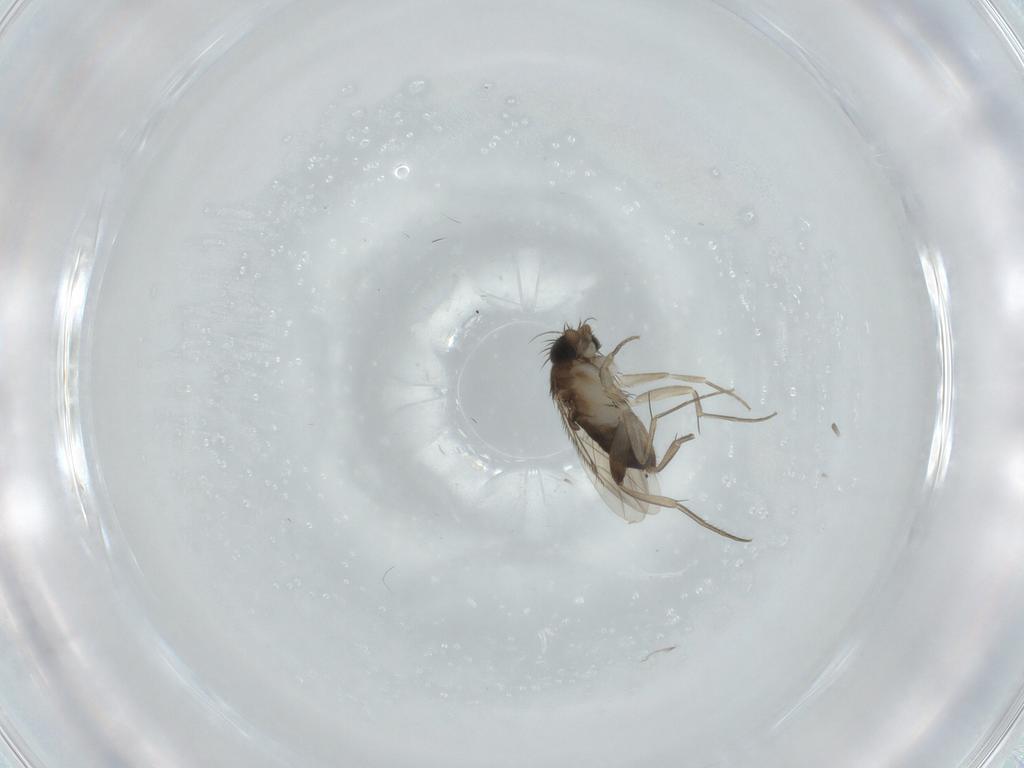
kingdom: Animalia
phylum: Arthropoda
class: Insecta
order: Diptera
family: Phoridae
